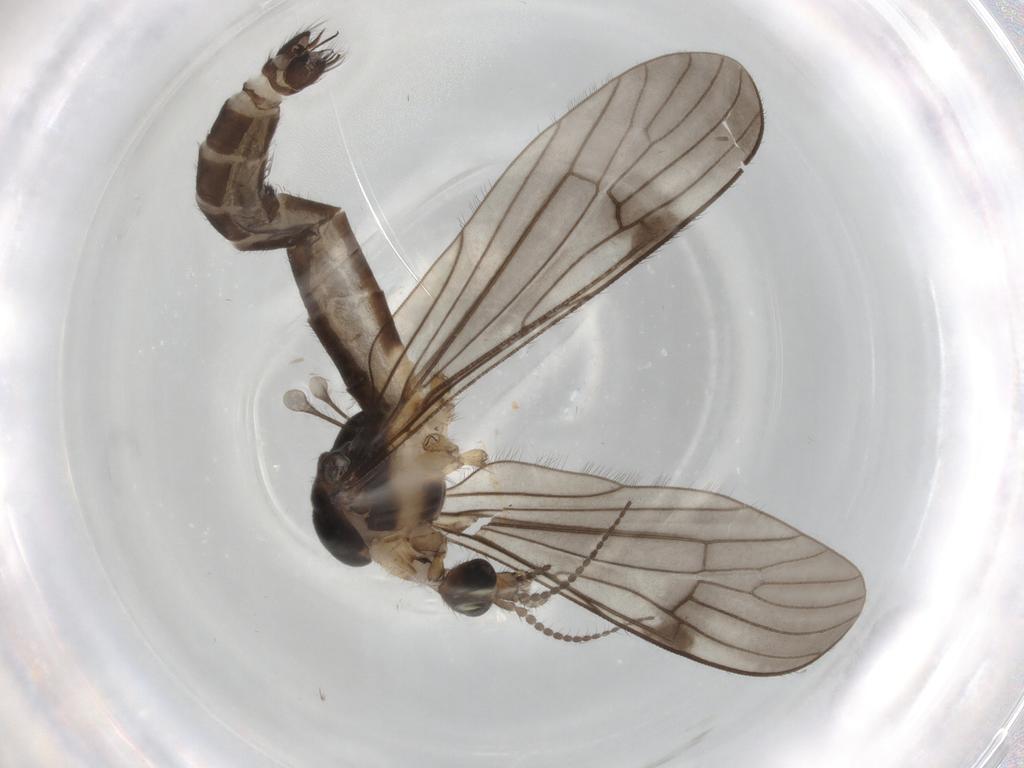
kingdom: Animalia
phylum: Arthropoda
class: Insecta
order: Diptera
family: Limoniidae
